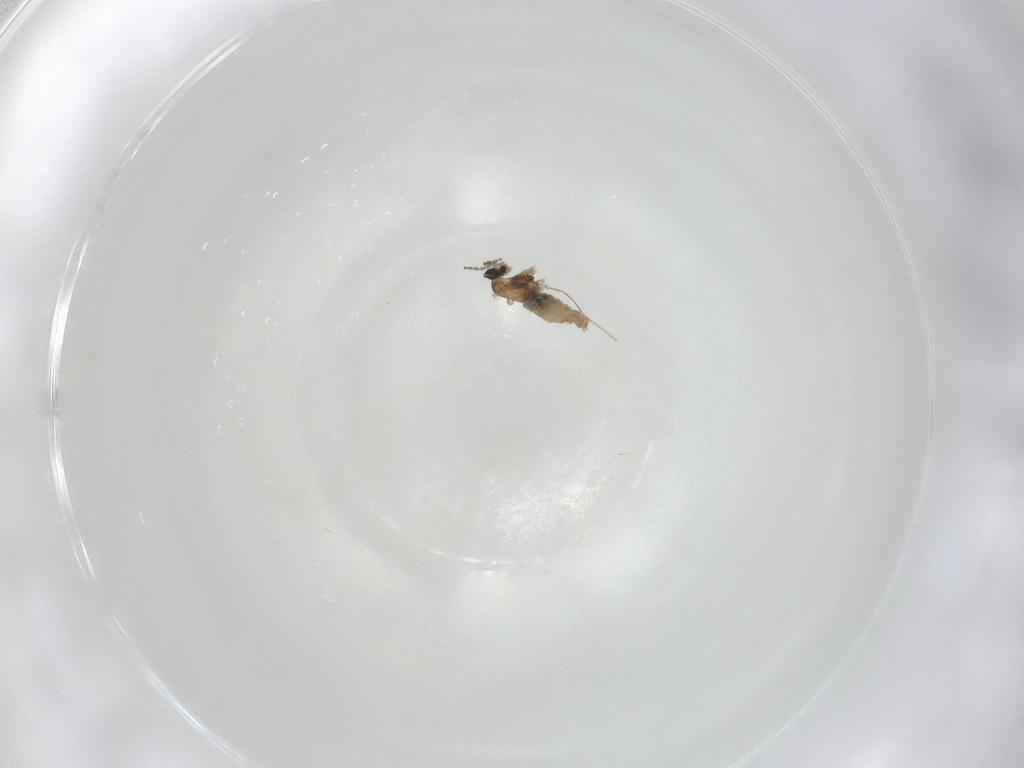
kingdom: Animalia
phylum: Arthropoda
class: Insecta
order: Diptera
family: Cecidomyiidae
